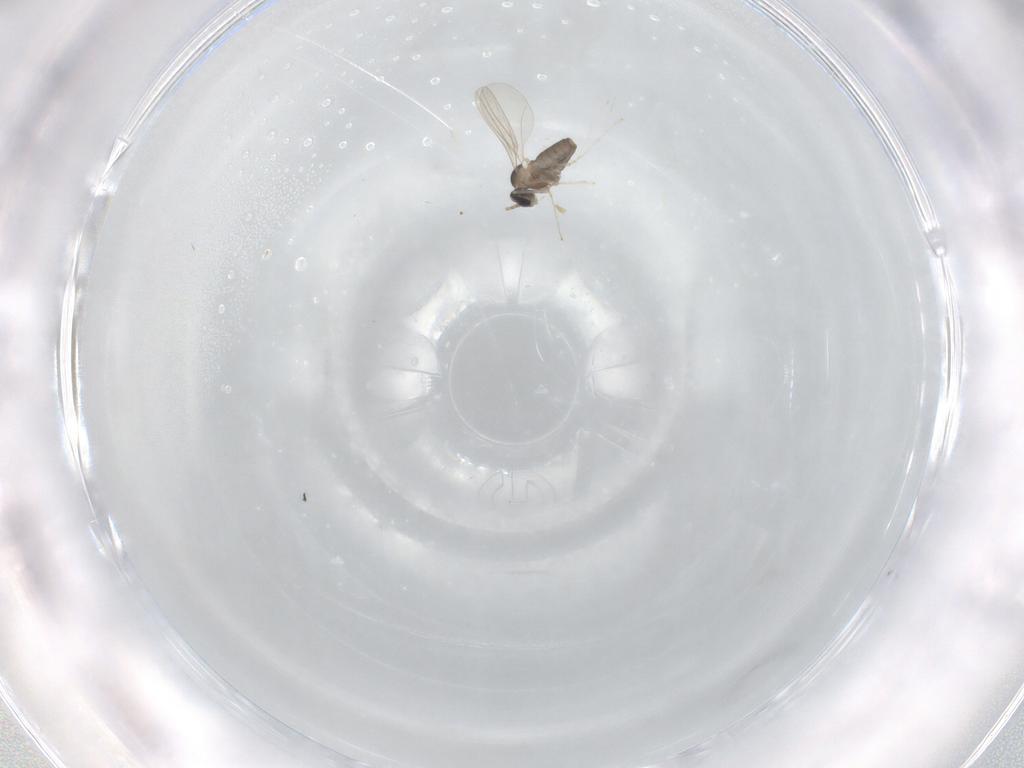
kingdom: Animalia
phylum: Arthropoda
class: Insecta
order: Diptera
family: Cecidomyiidae
